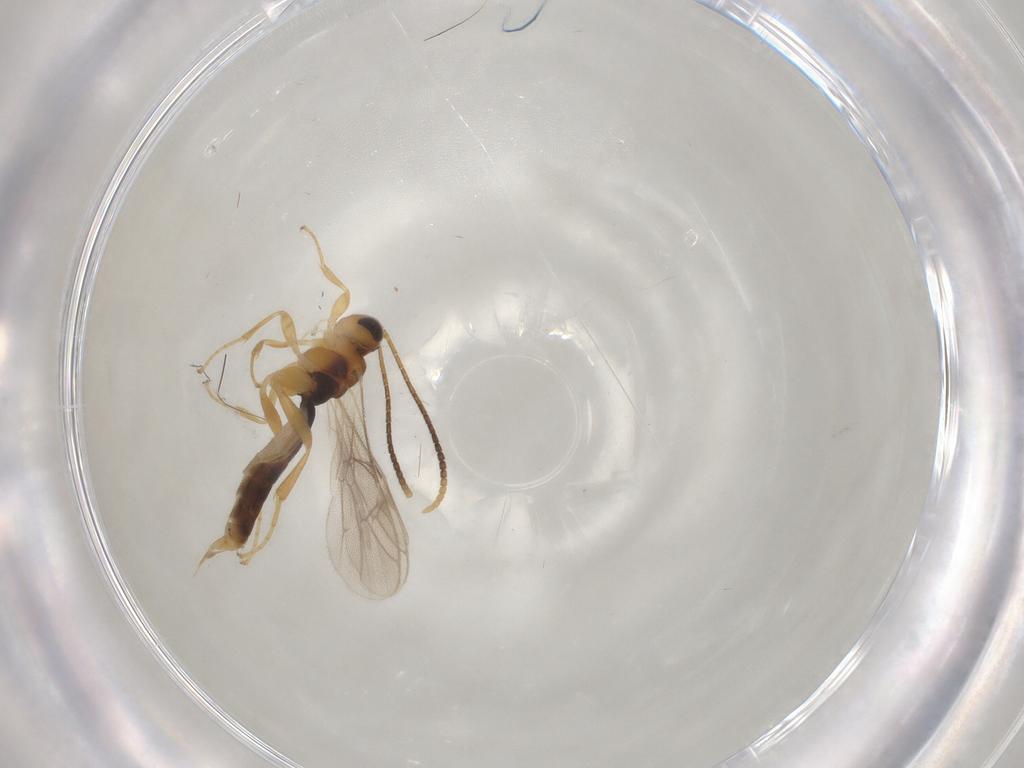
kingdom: Animalia
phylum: Arthropoda
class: Insecta
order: Hymenoptera
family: Ichneumonidae
